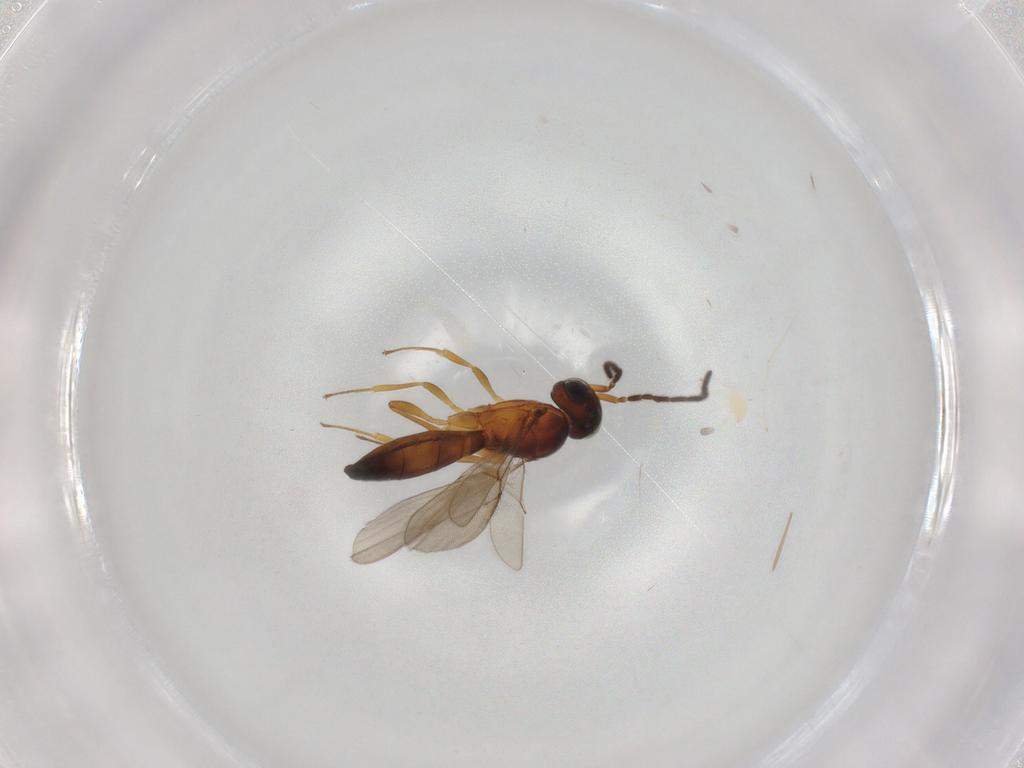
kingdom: Animalia
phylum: Arthropoda
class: Insecta
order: Hymenoptera
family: Scelionidae
